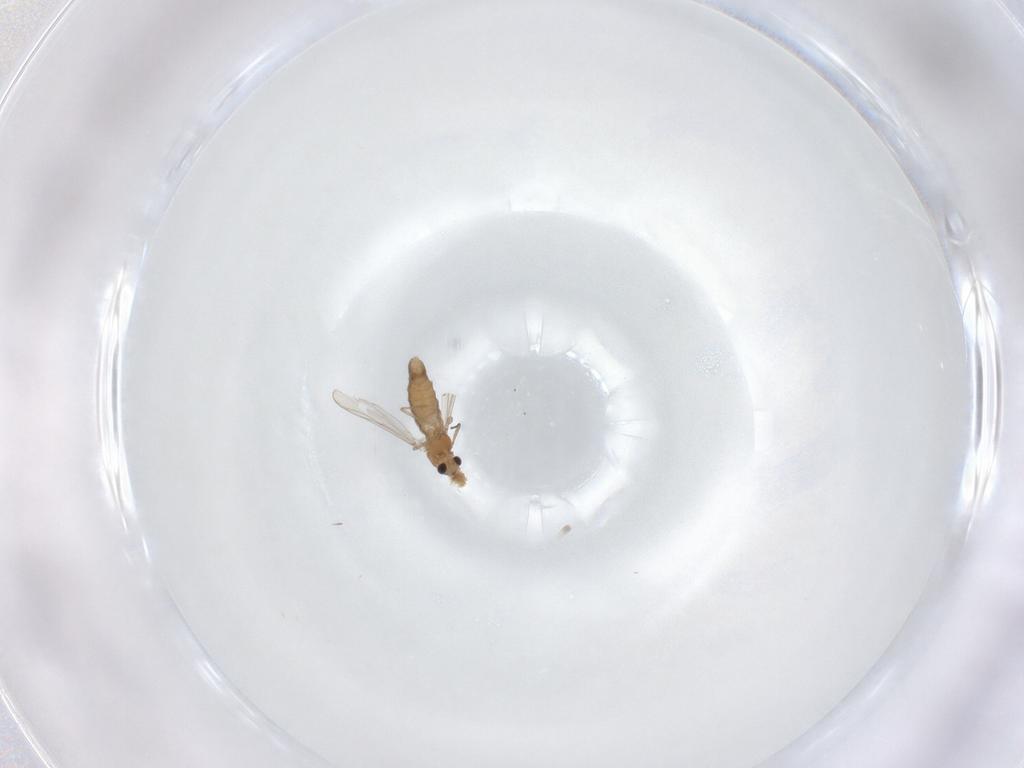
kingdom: Animalia
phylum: Arthropoda
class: Insecta
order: Diptera
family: Chironomidae
